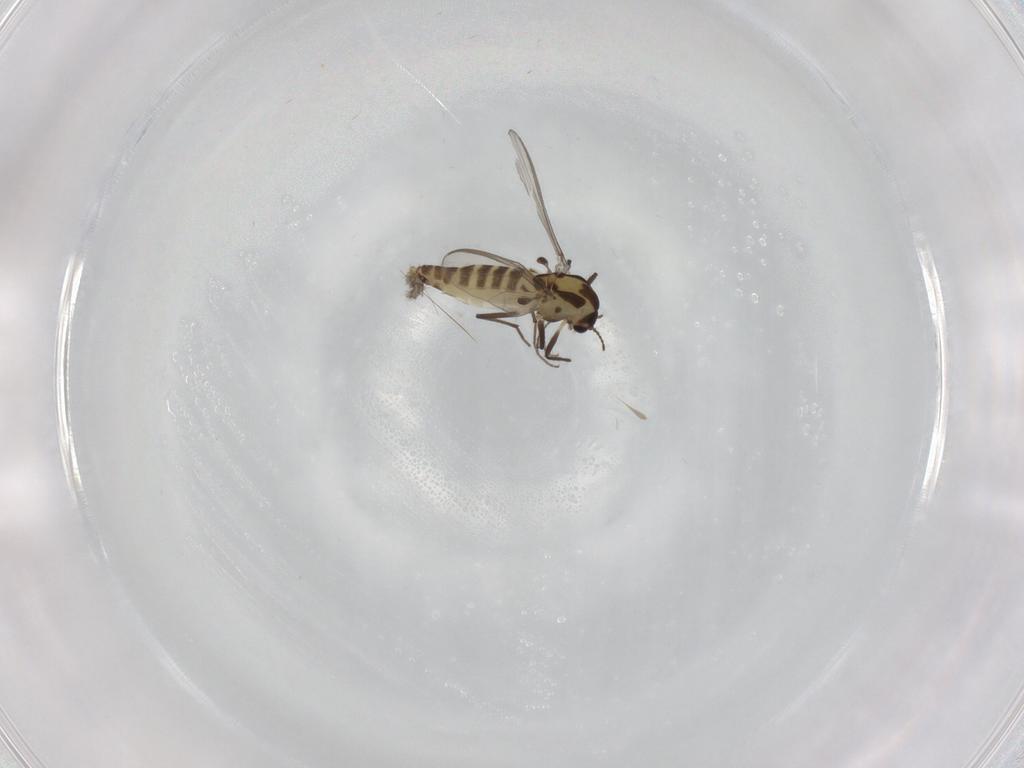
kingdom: Animalia
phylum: Arthropoda
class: Insecta
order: Diptera
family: Chironomidae
